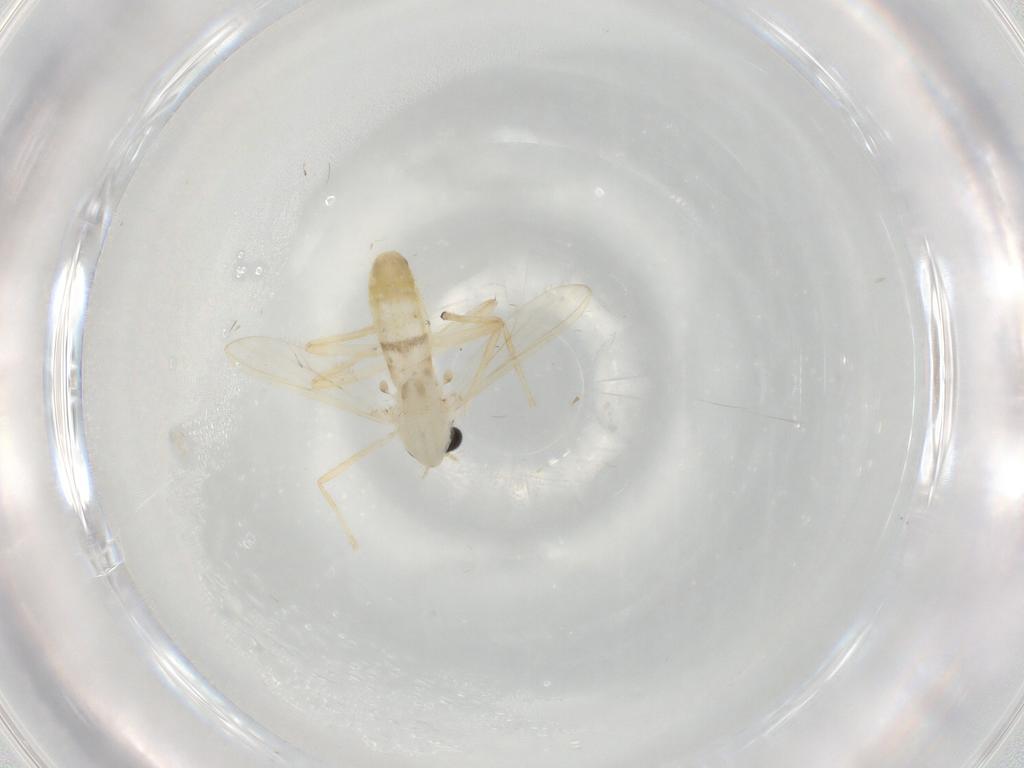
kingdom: Animalia
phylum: Arthropoda
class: Insecta
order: Diptera
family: Chironomidae
